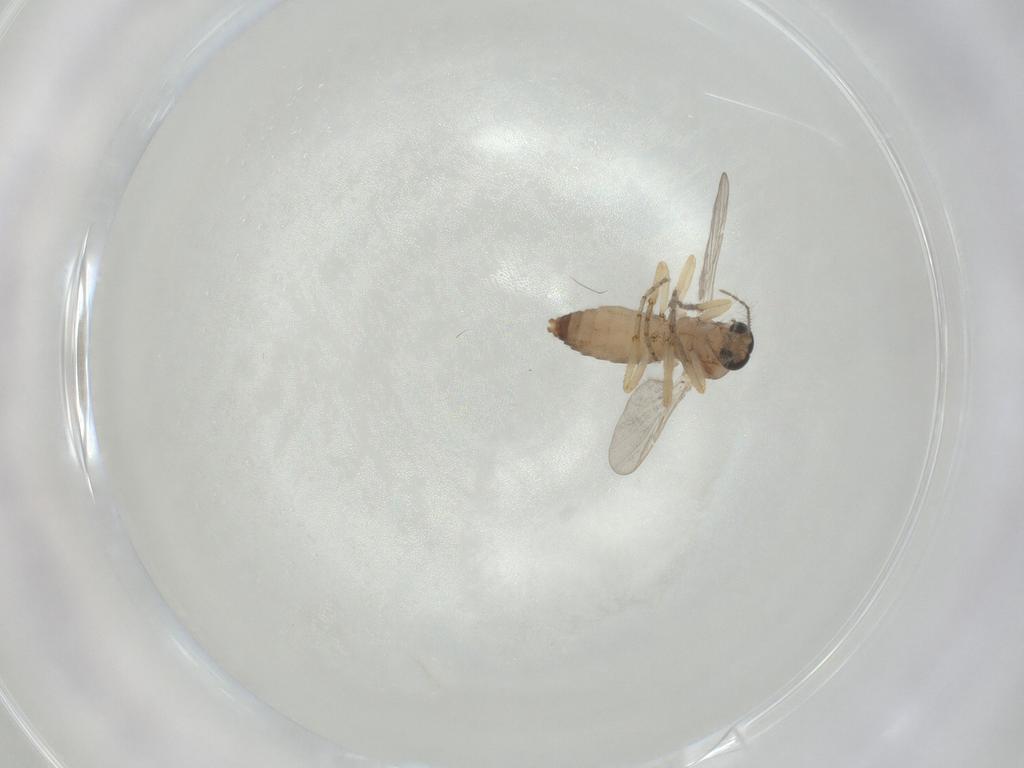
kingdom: Animalia
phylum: Arthropoda
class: Insecta
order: Diptera
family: Ceratopogonidae
